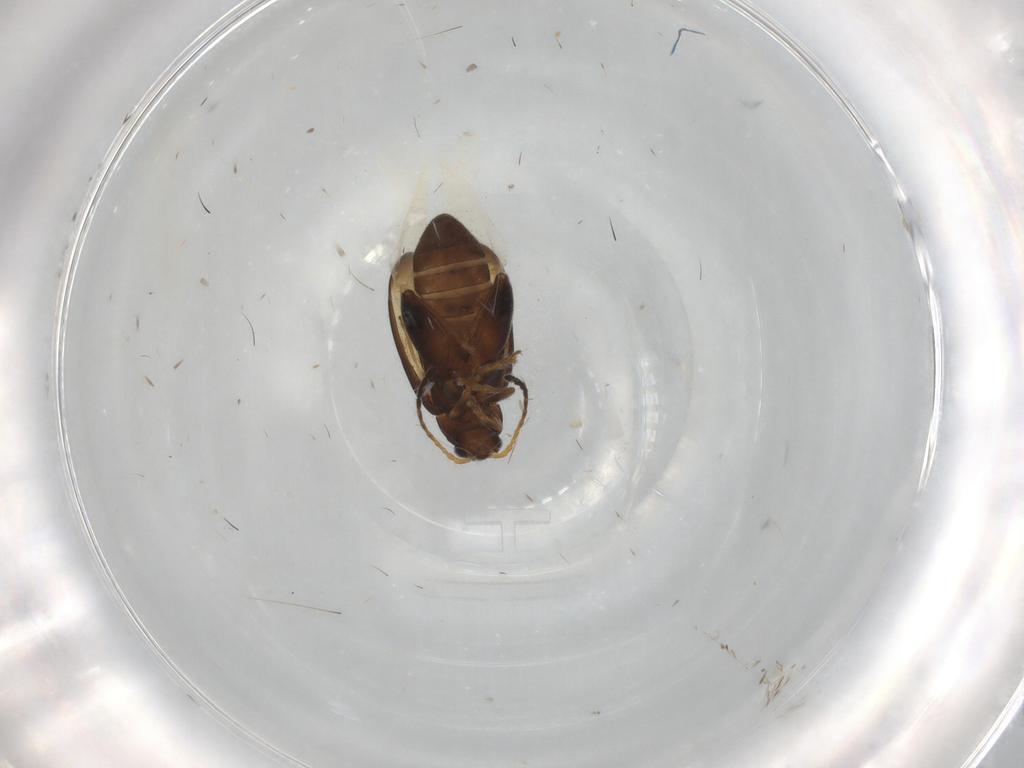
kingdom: Animalia
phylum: Arthropoda
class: Insecta
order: Coleoptera
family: Chrysomelidae
